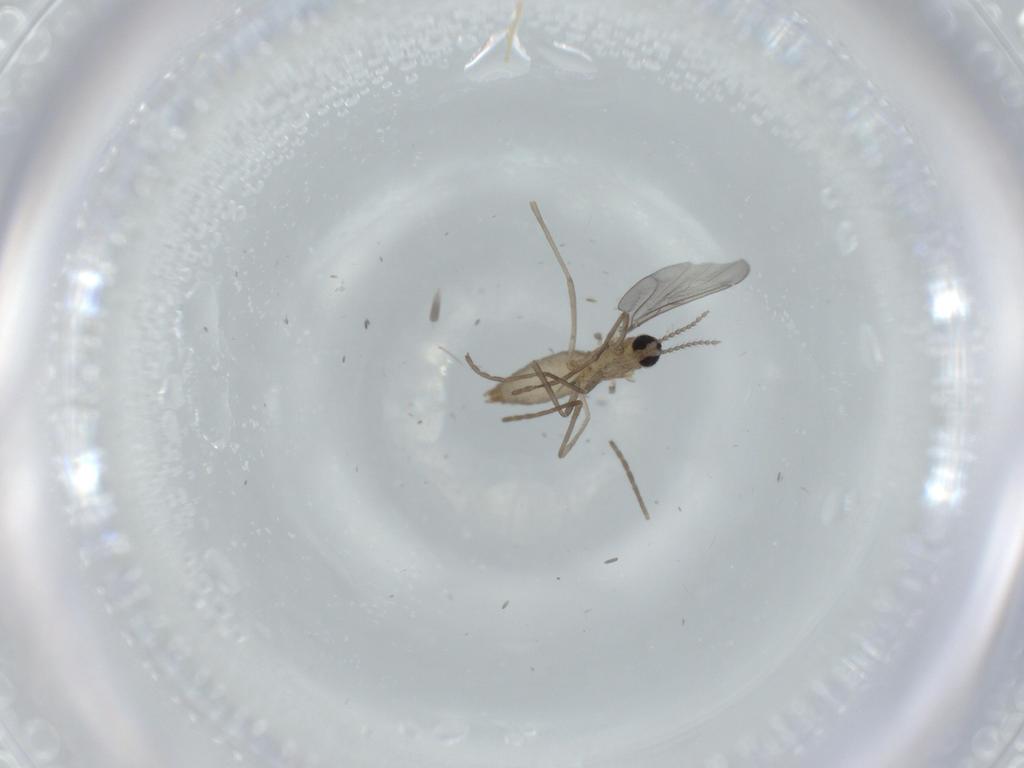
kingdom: Animalia
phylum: Arthropoda
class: Insecta
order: Diptera
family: Cecidomyiidae
